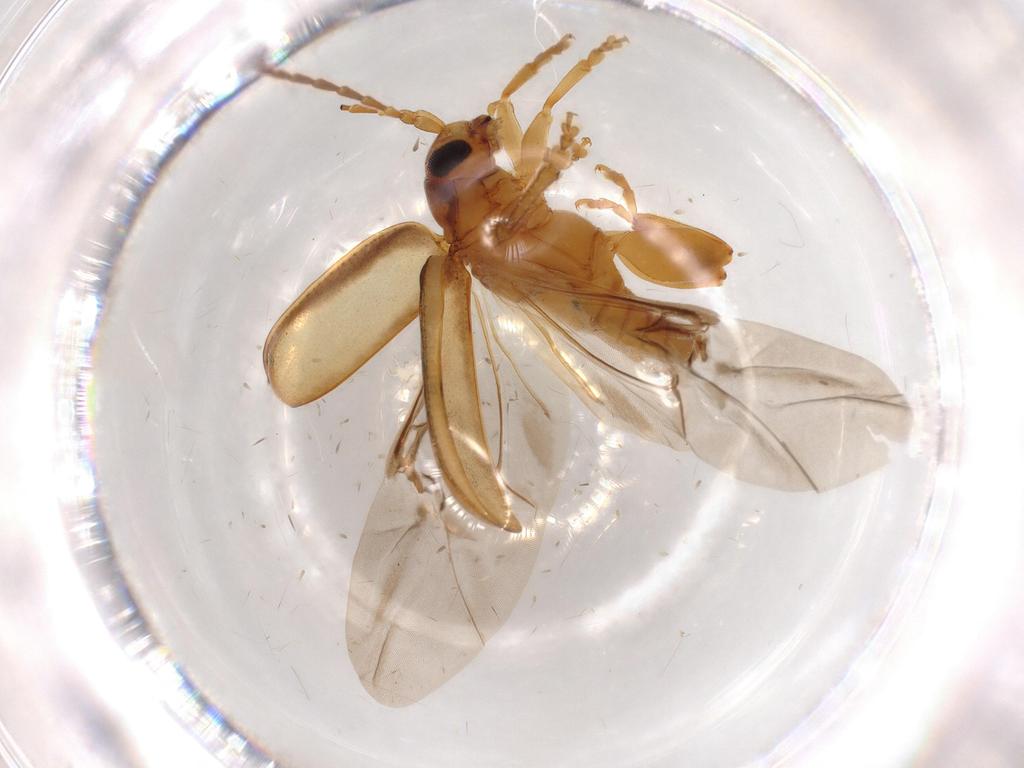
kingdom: Animalia
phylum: Arthropoda
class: Insecta
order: Coleoptera
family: Chrysomelidae
